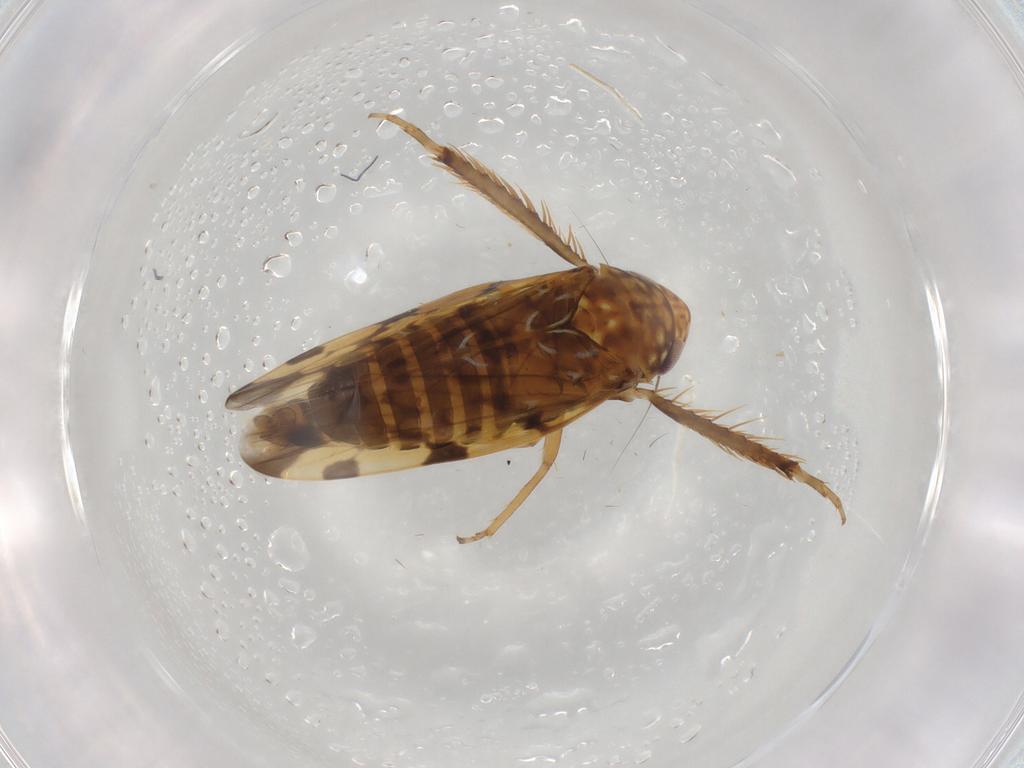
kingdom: Animalia
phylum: Arthropoda
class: Insecta
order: Hemiptera
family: Cicadellidae
